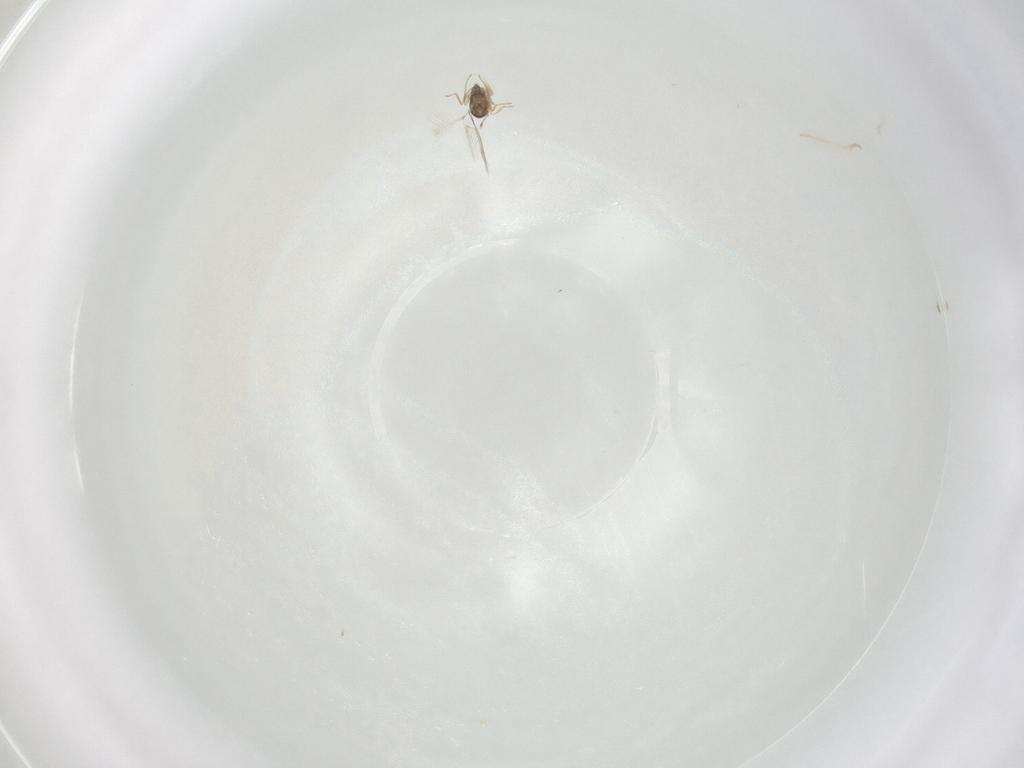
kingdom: Animalia
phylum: Arthropoda
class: Insecta
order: Hymenoptera
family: Mymaridae
